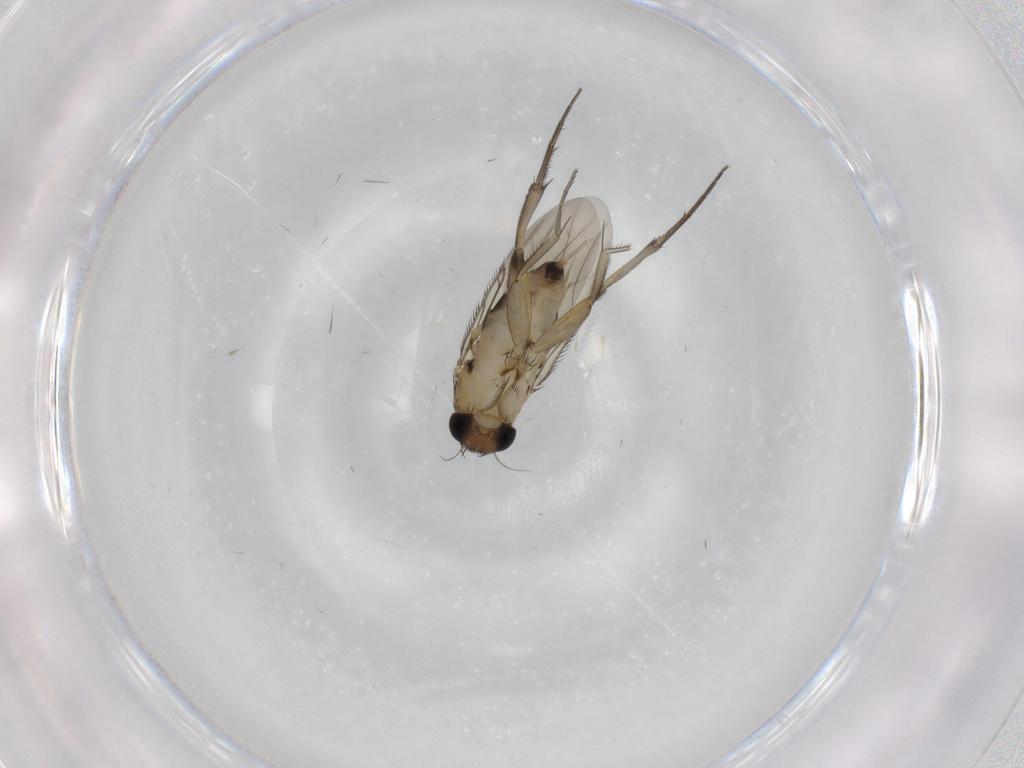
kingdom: Animalia
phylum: Arthropoda
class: Insecta
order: Diptera
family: Phoridae
